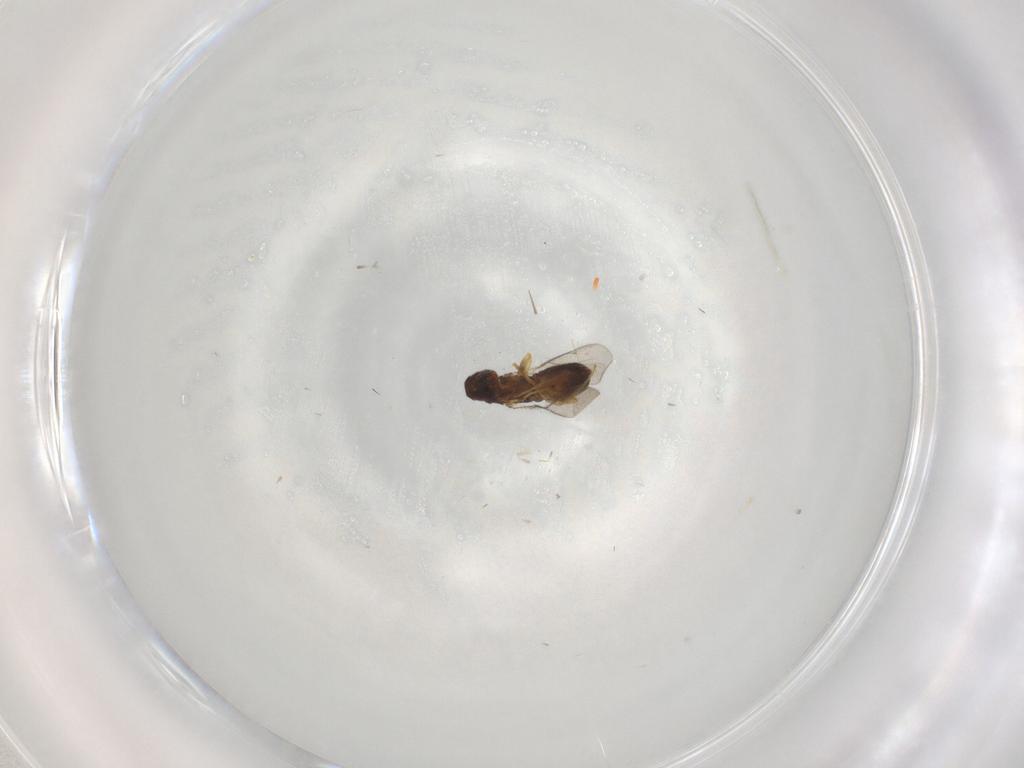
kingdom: Animalia
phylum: Arthropoda
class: Insecta
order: Hymenoptera
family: Eulophidae
